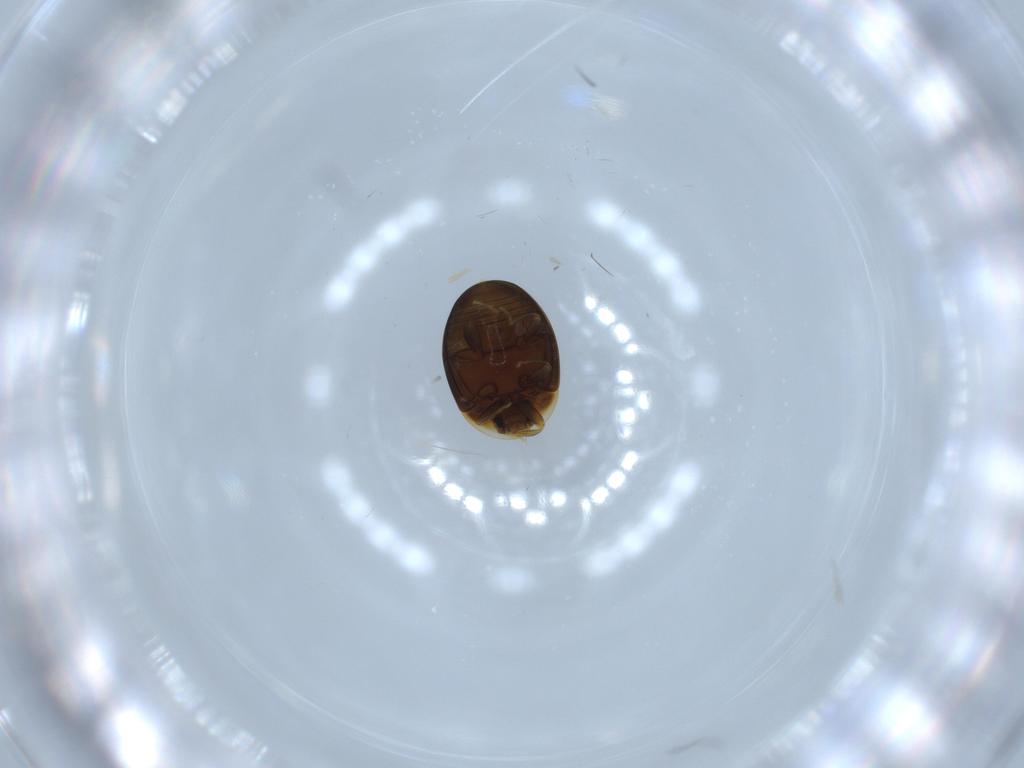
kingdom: Animalia
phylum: Arthropoda
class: Insecta
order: Coleoptera
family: Corylophidae
